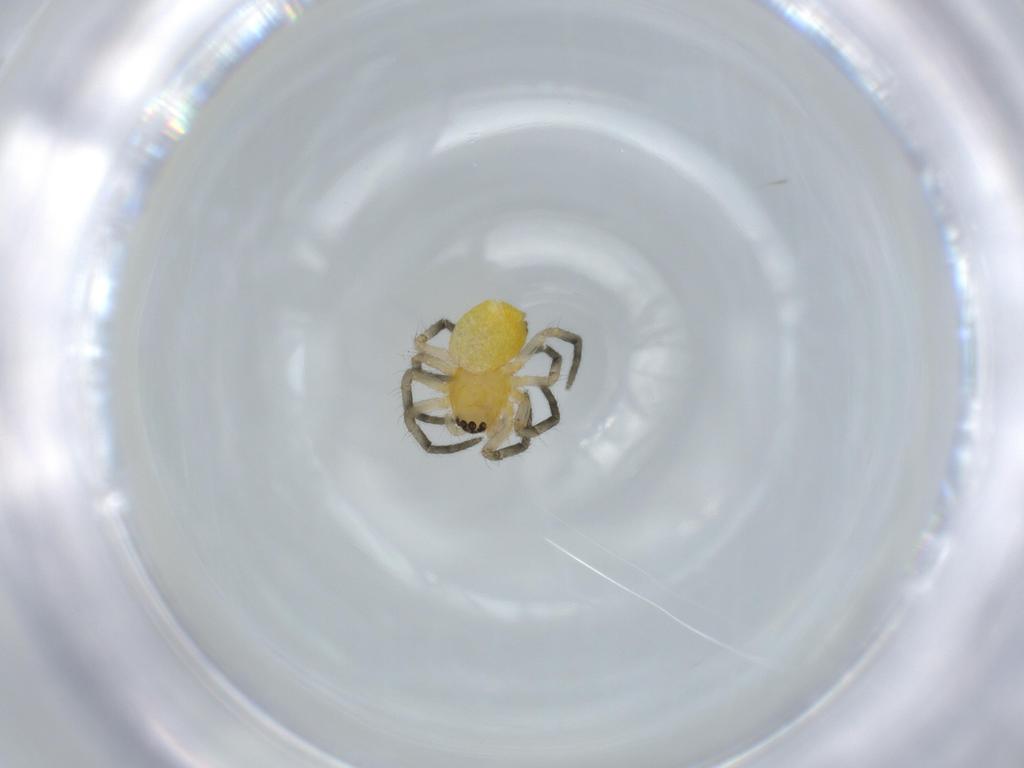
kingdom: Animalia
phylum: Arthropoda
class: Arachnida
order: Araneae
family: Araneidae
